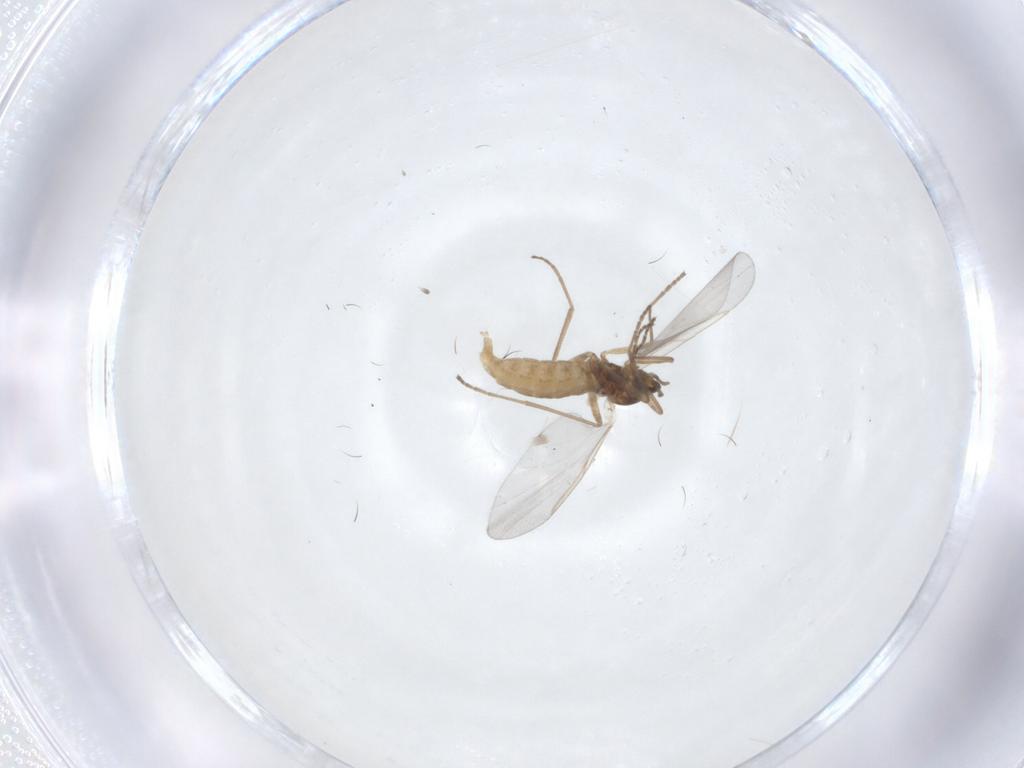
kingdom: Animalia
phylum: Arthropoda
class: Insecta
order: Diptera
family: Cecidomyiidae
